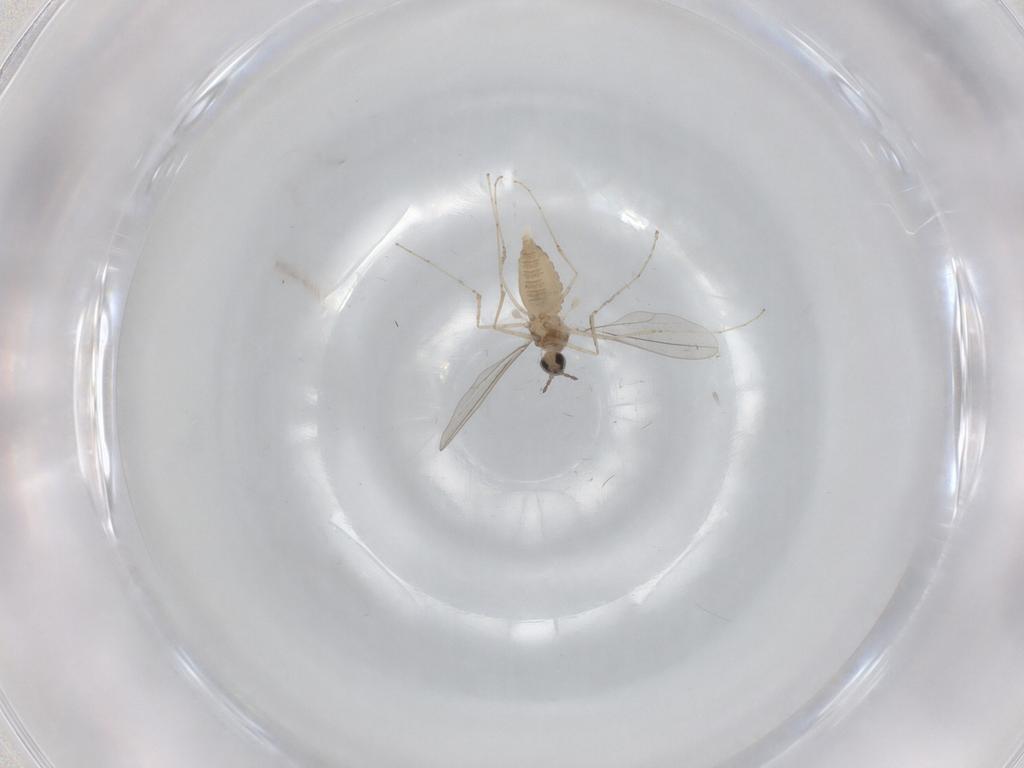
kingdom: Animalia
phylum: Arthropoda
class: Insecta
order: Diptera
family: Cecidomyiidae
